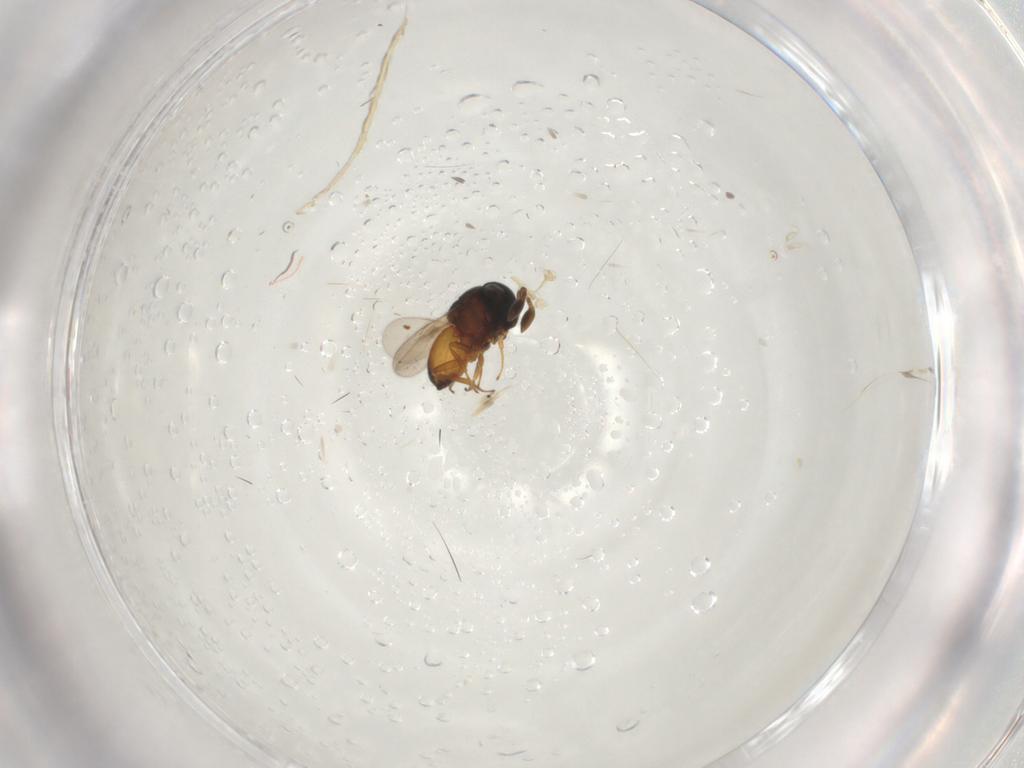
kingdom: Animalia
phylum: Arthropoda
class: Insecta
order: Hymenoptera
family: Scelionidae
